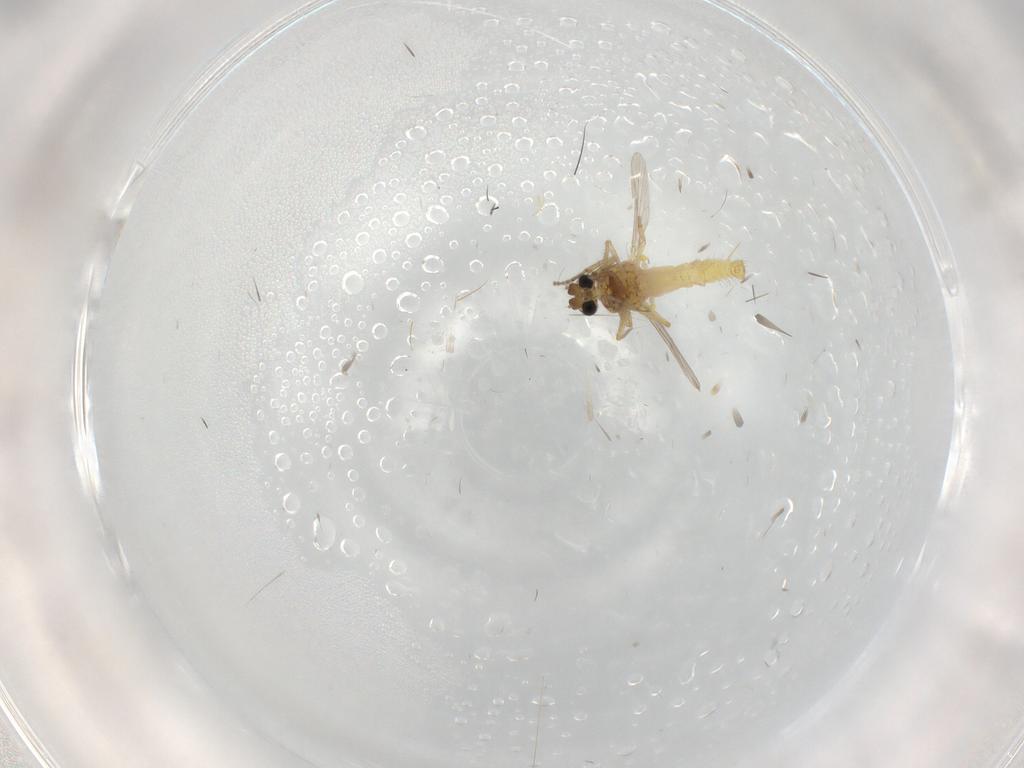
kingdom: Animalia
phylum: Arthropoda
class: Insecta
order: Diptera
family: Ceratopogonidae
